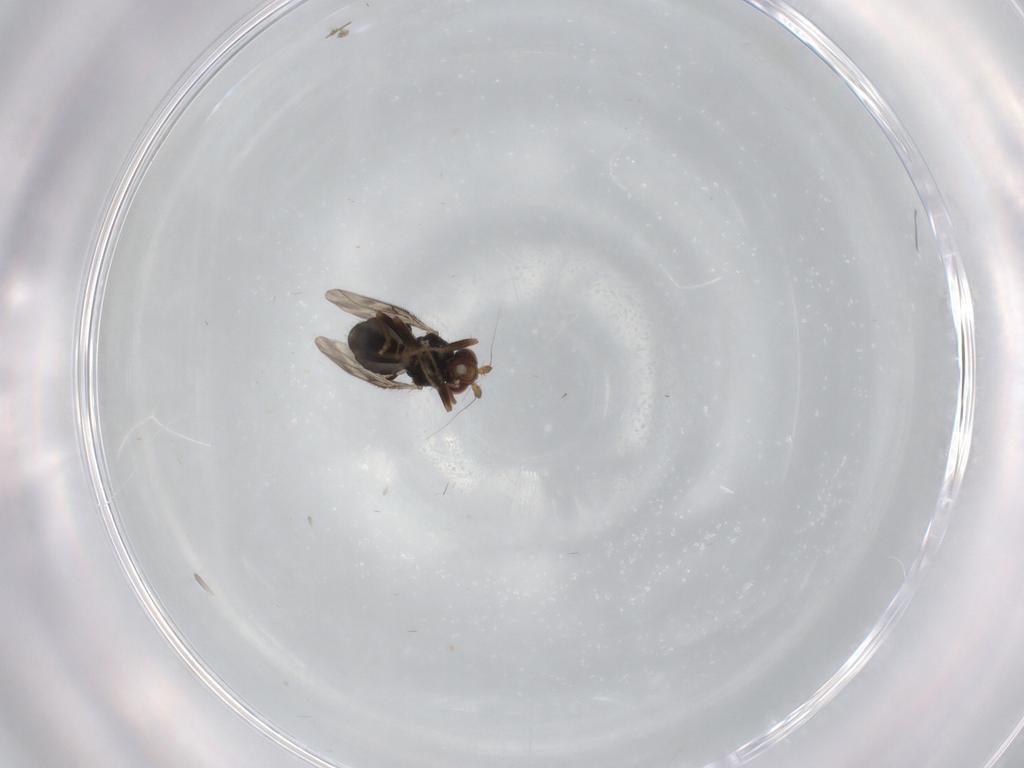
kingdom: Animalia
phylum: Arthropoda
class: Insecta
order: Diptera
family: Sphaeroceridae
